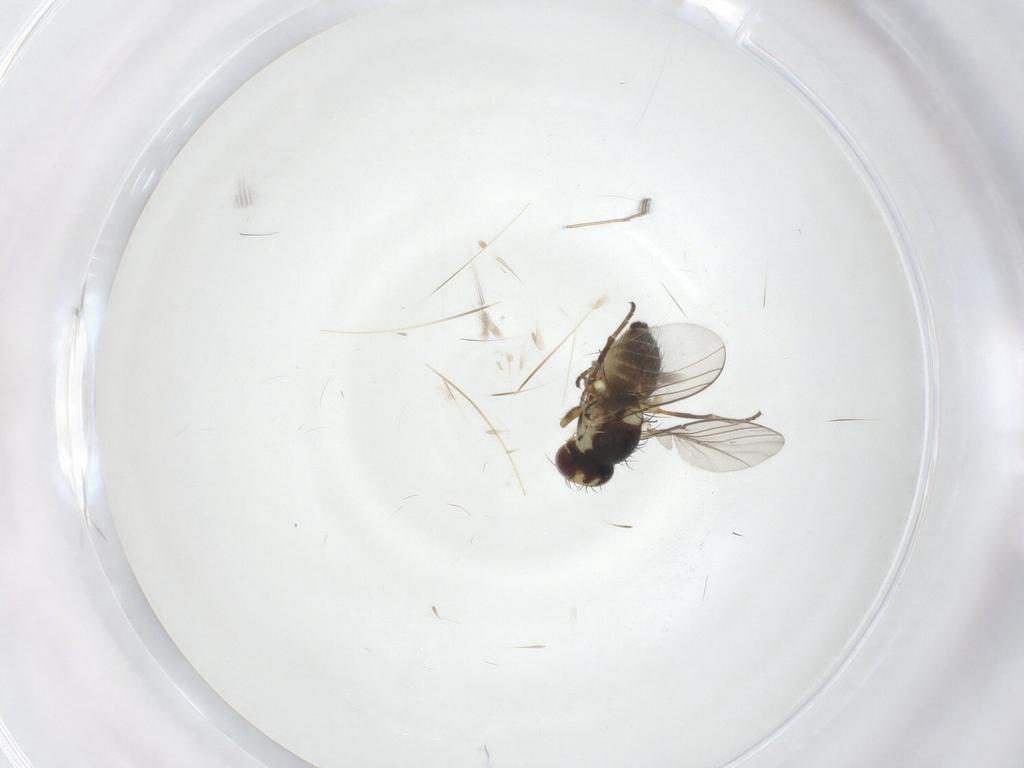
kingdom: Animalia
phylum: Arthropoda
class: Insecta
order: Diptera
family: Agromyzidae
